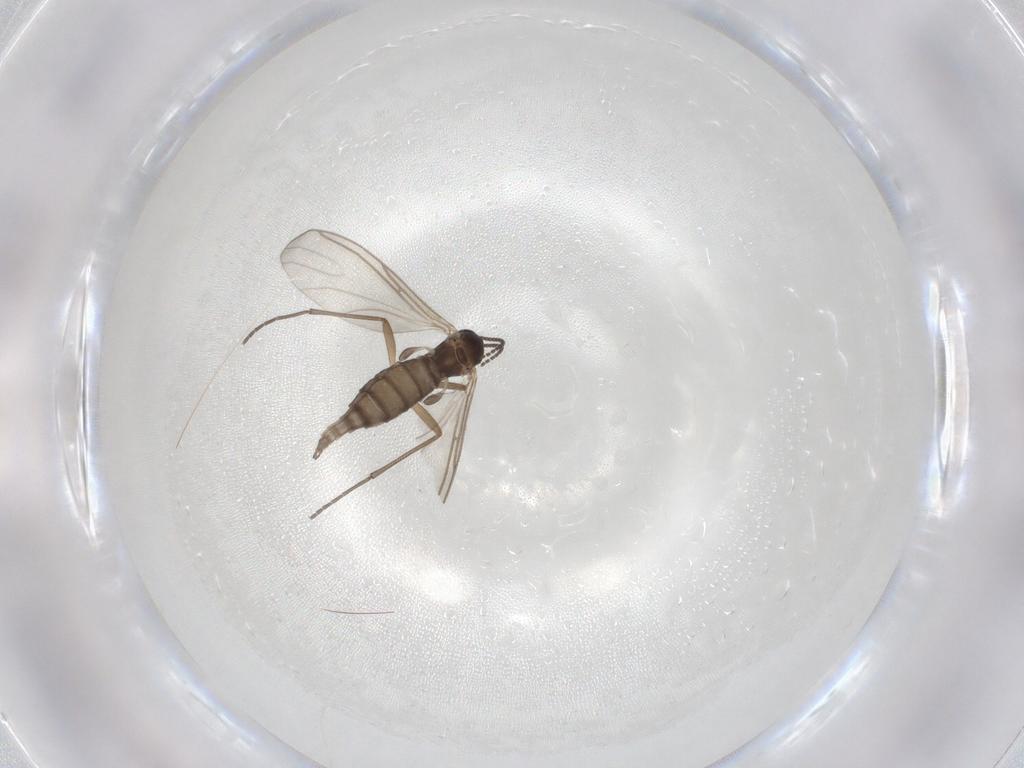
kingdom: Animalia
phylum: Arthropoda
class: Insecta
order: Diptera
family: Sciaridae
